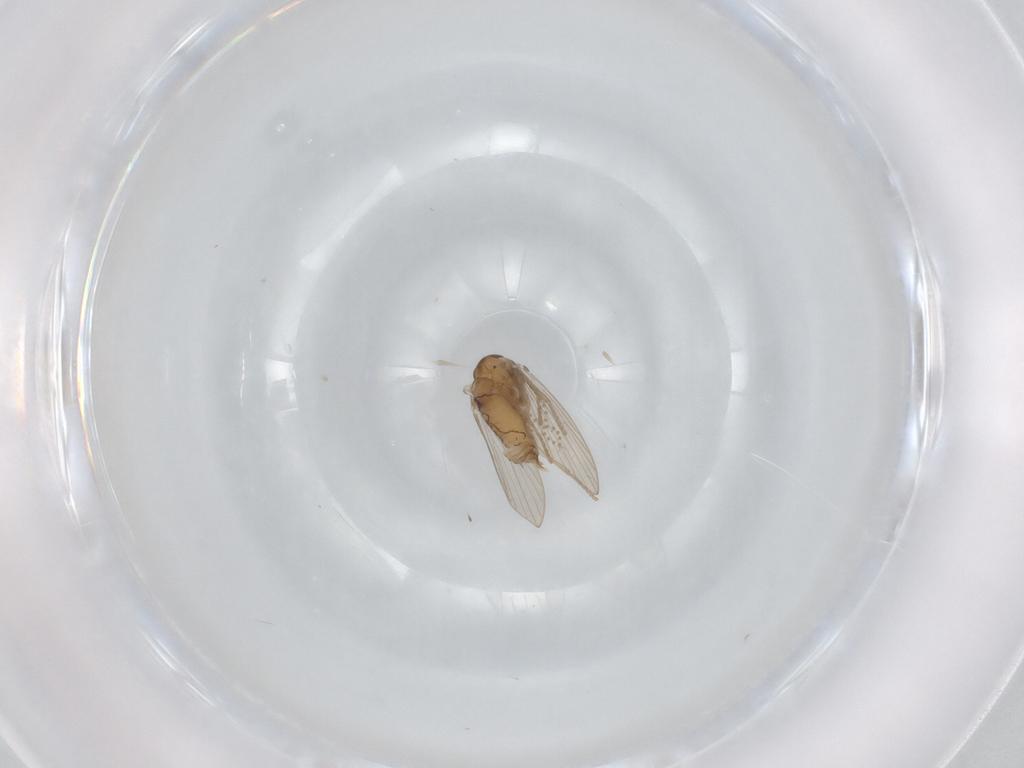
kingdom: Animalia
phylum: Arthropoda
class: Insecta
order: Diptera
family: Psychodidae
